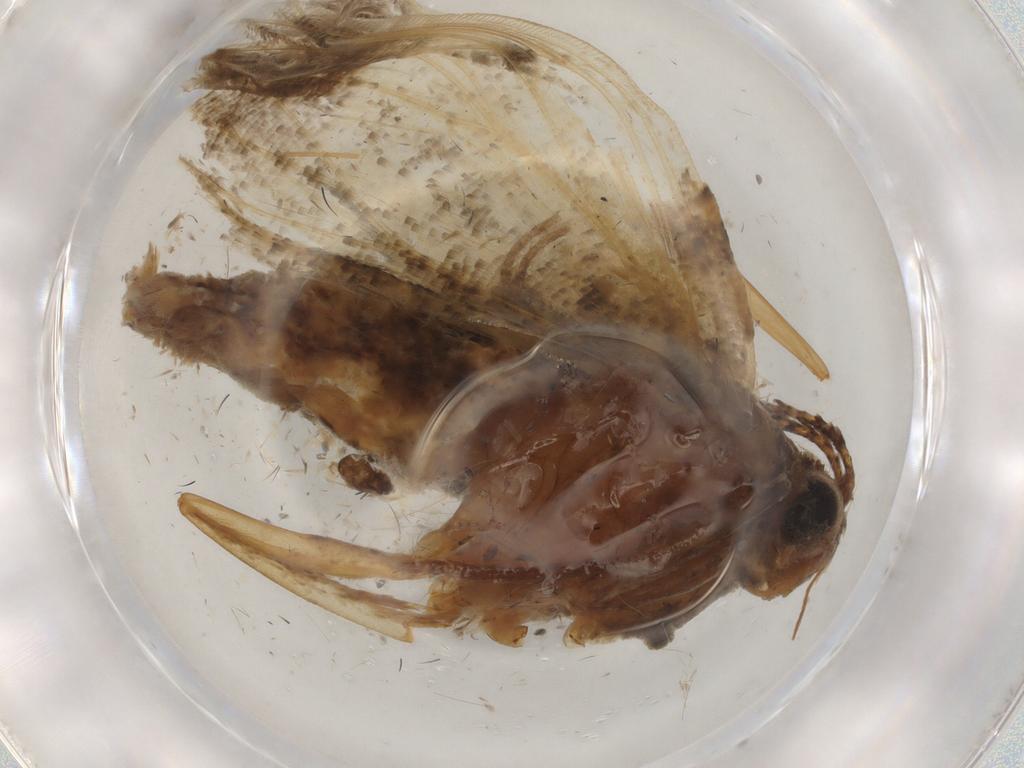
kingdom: Animalia
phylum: Arthropoda
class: Insecta
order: Lepidoptera
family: Geometridae
